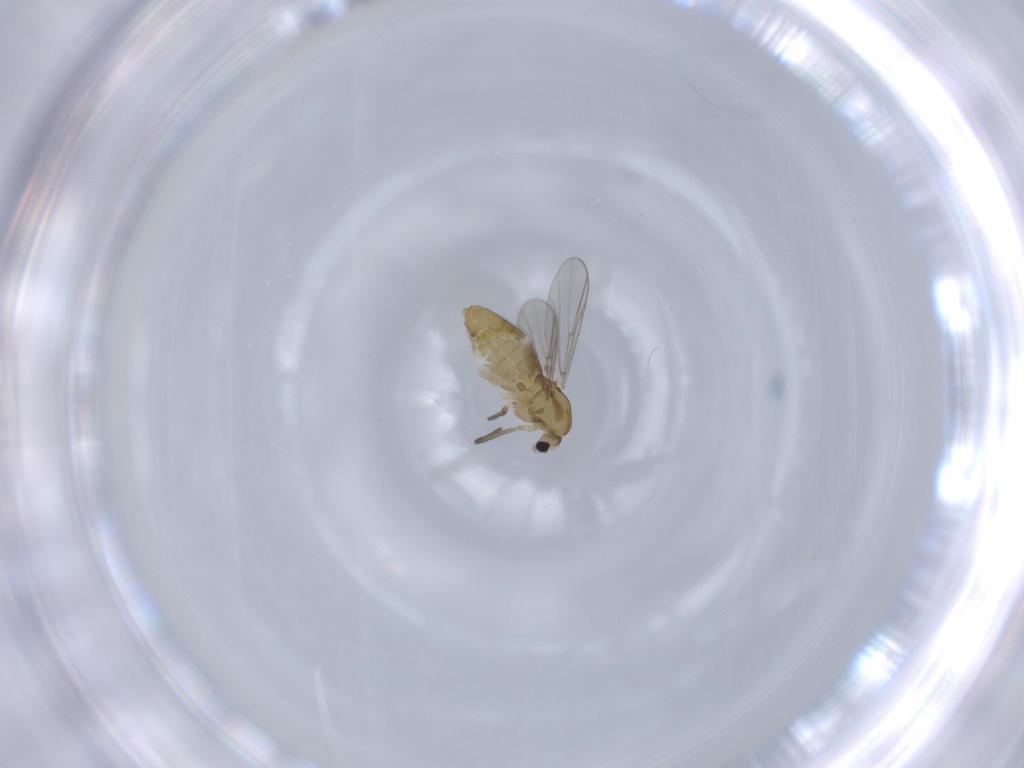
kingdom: Animalia
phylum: Arthropoda
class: Insecta
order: Diptera
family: Chironomidae
